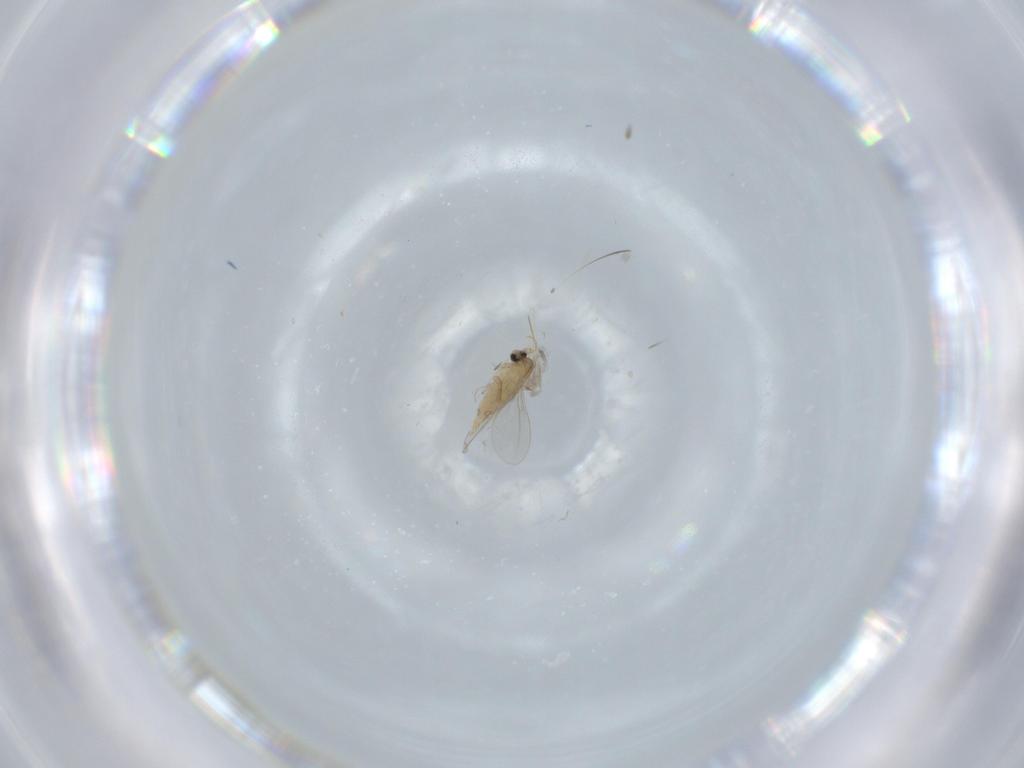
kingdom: Animalia
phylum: Arthropoda
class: Insecta
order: Diptera
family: Cecidomyiidae
